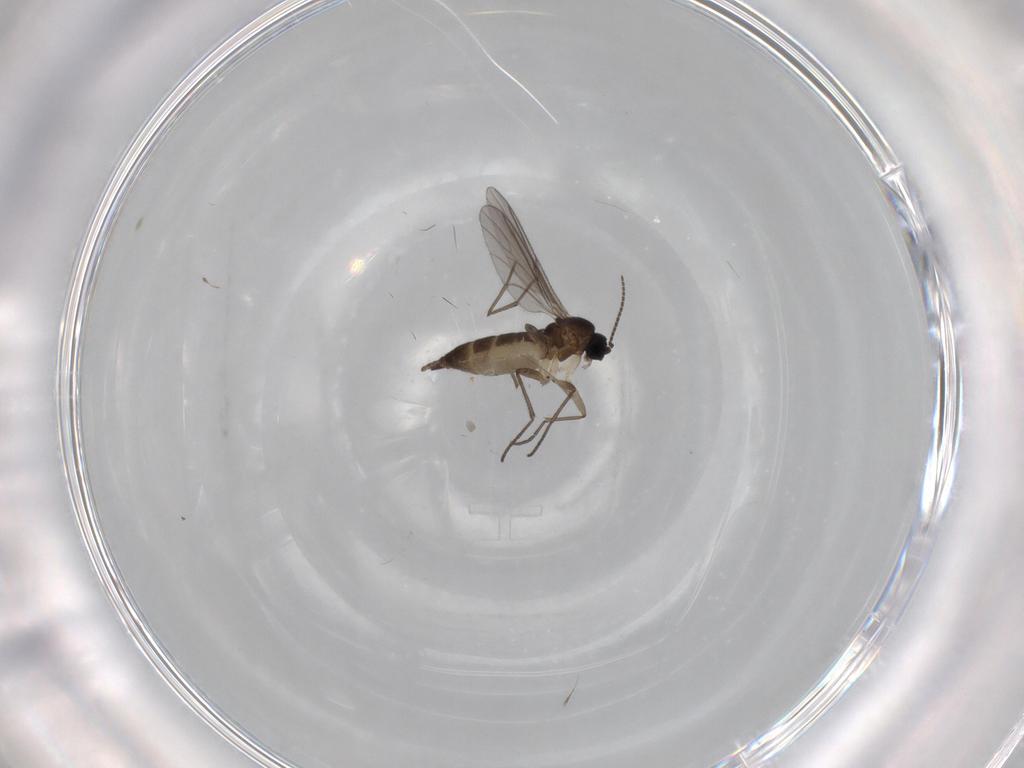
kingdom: Animalia
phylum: Arthropoda
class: Insecta
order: Diptera
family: Sciaridae
